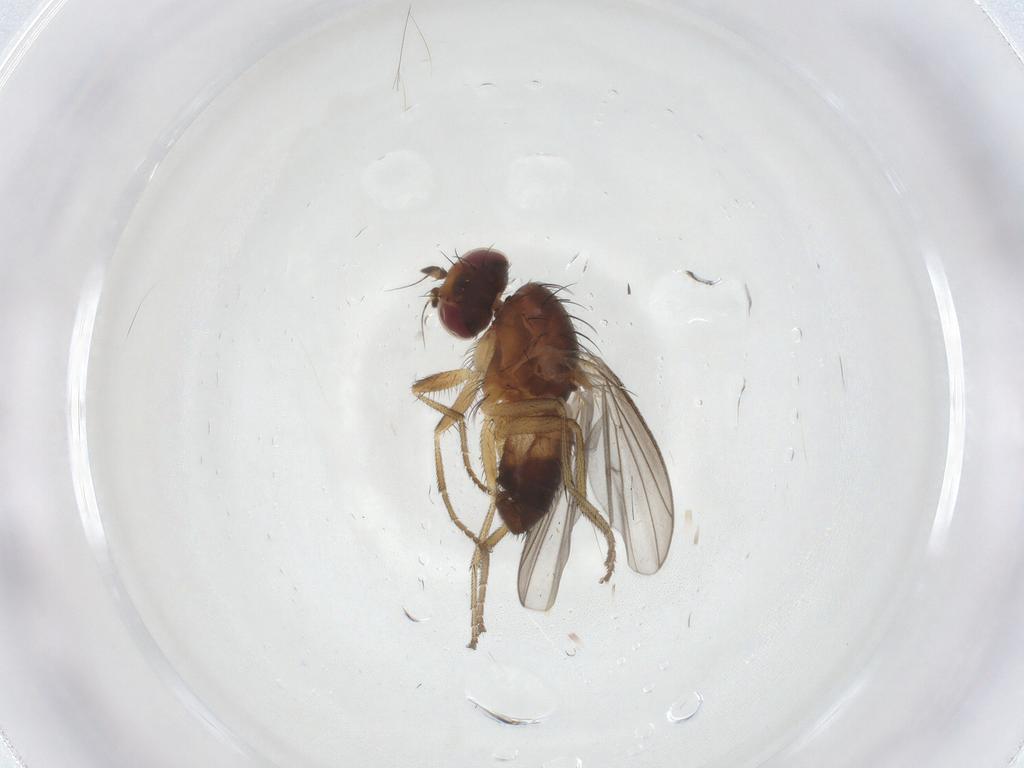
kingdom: Animalia
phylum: Arthropoda
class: Insecta
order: Diptera
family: Heleomyzidae
